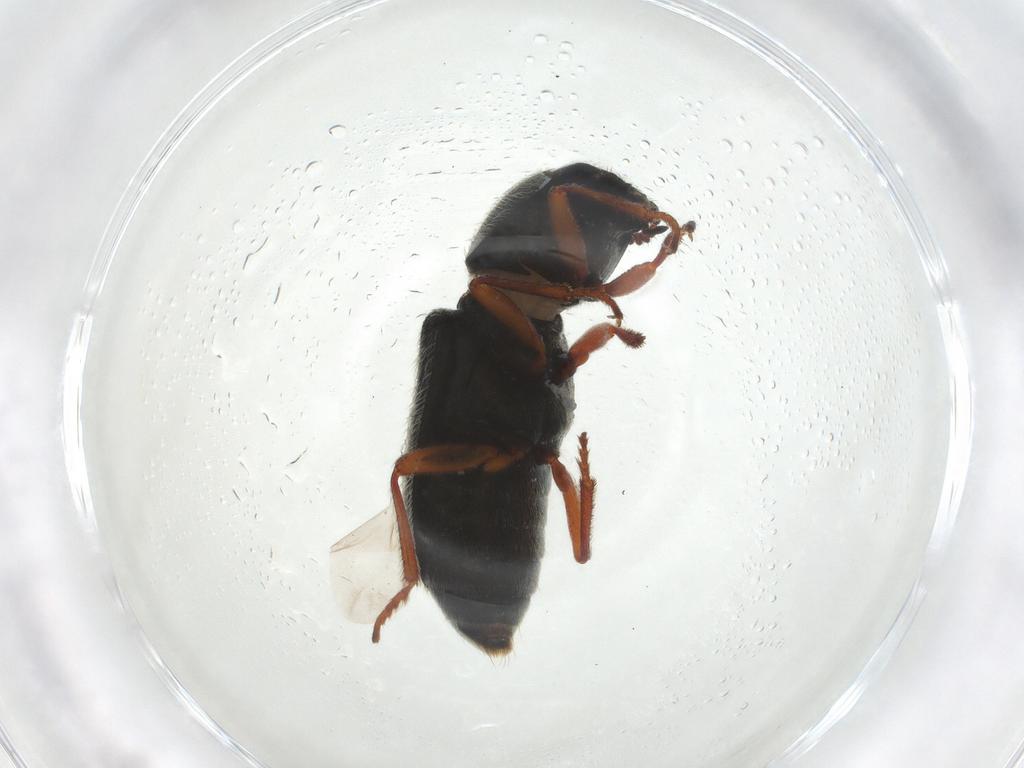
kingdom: Animalia
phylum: Arthropoda
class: Insecta
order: Coleoptera
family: Melyridae
